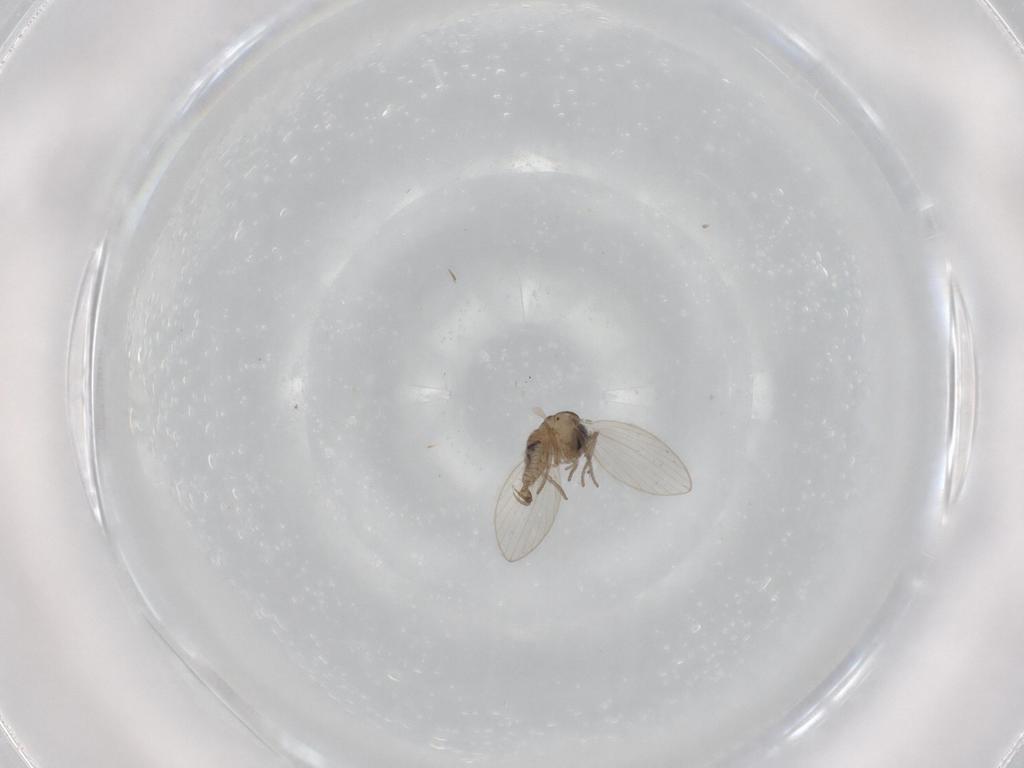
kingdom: Animalia
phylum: Arthropoda
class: Insecta
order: Diptera
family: Psychodidae
